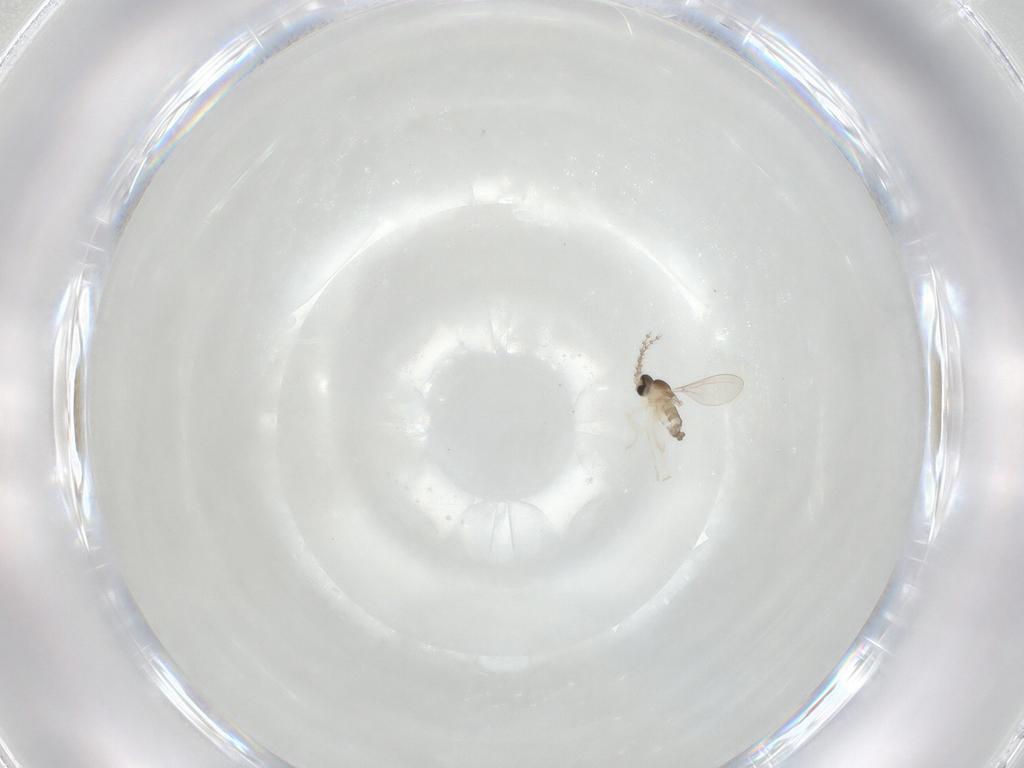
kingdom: Animalia
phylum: Arthropoda
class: Insecta
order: Diptera
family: Cecidomyiidae
